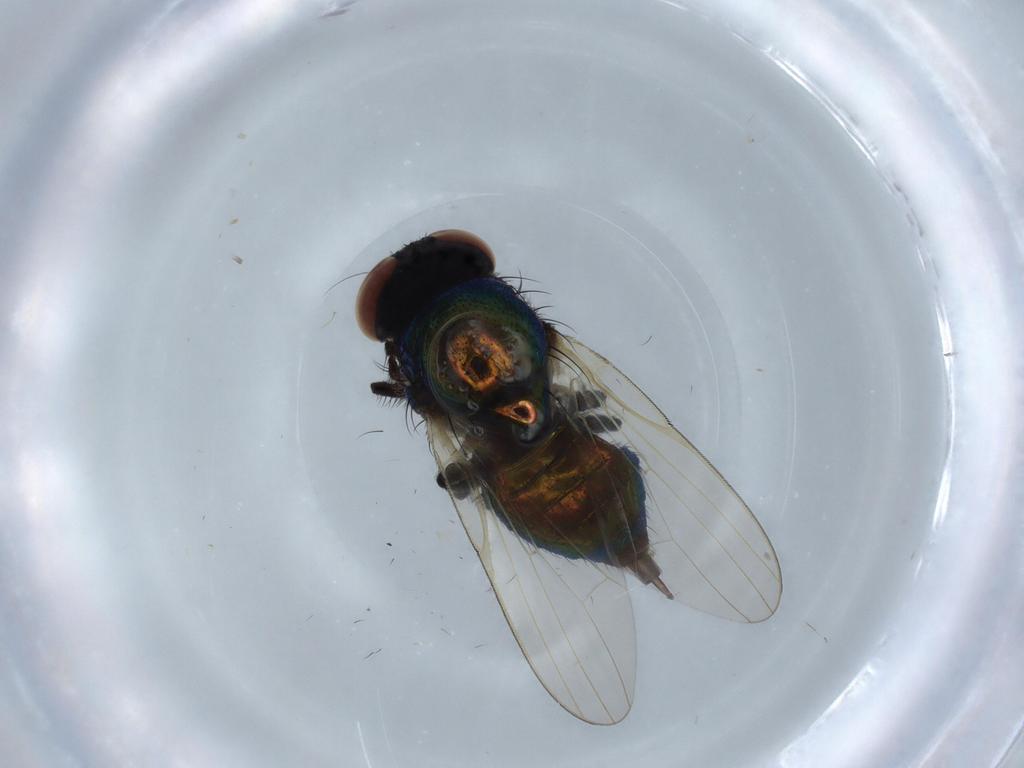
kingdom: Animalia
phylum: Arthropoda
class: Insecta
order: Diptera
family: Muscidae
